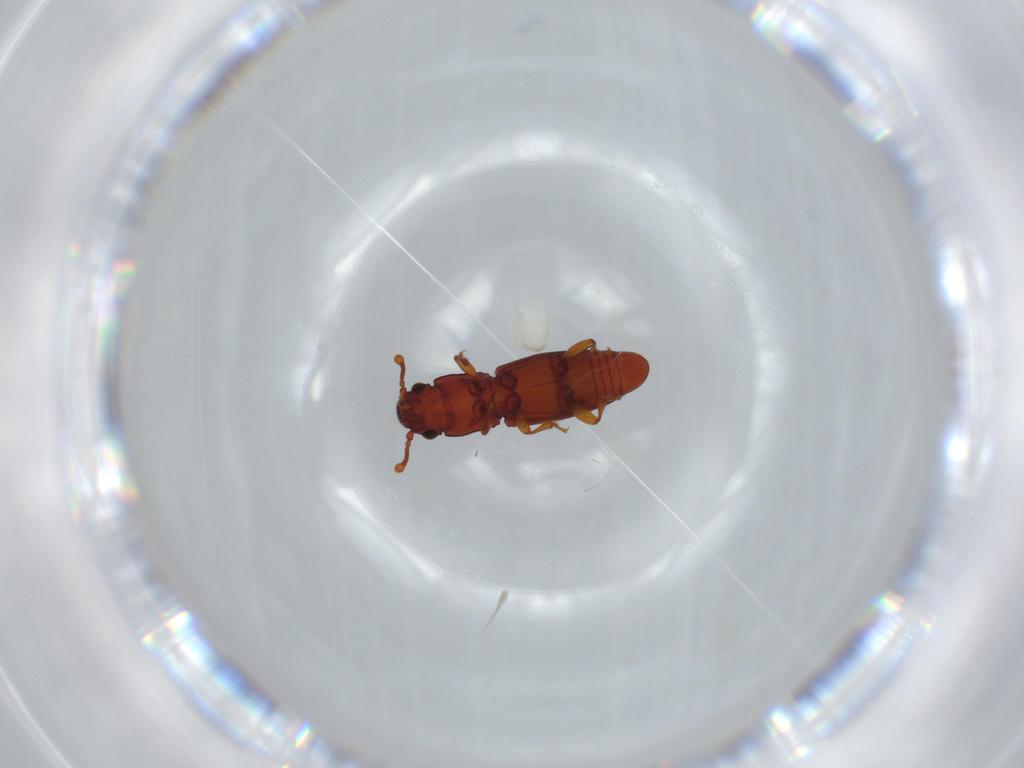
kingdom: Animalia
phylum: Arthropoda
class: Insecta
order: Coleoptera
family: Monotomidae
